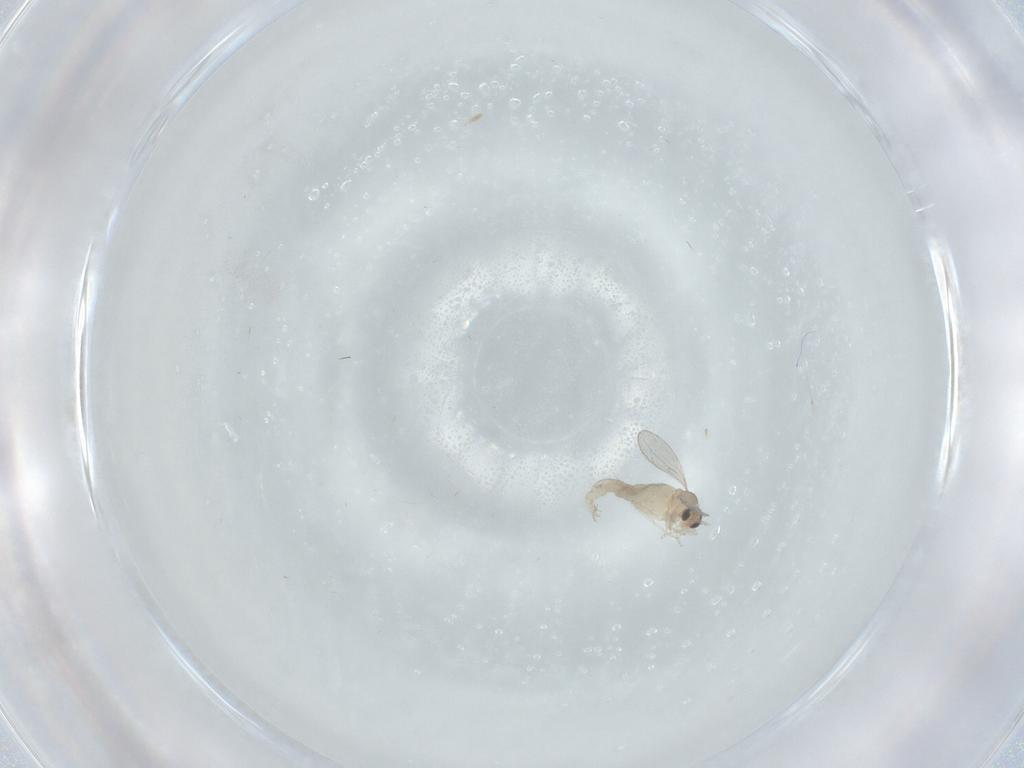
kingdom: Animalia
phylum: Arthropoda
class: Insecta
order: Diptera
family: Cecidomyiidae
